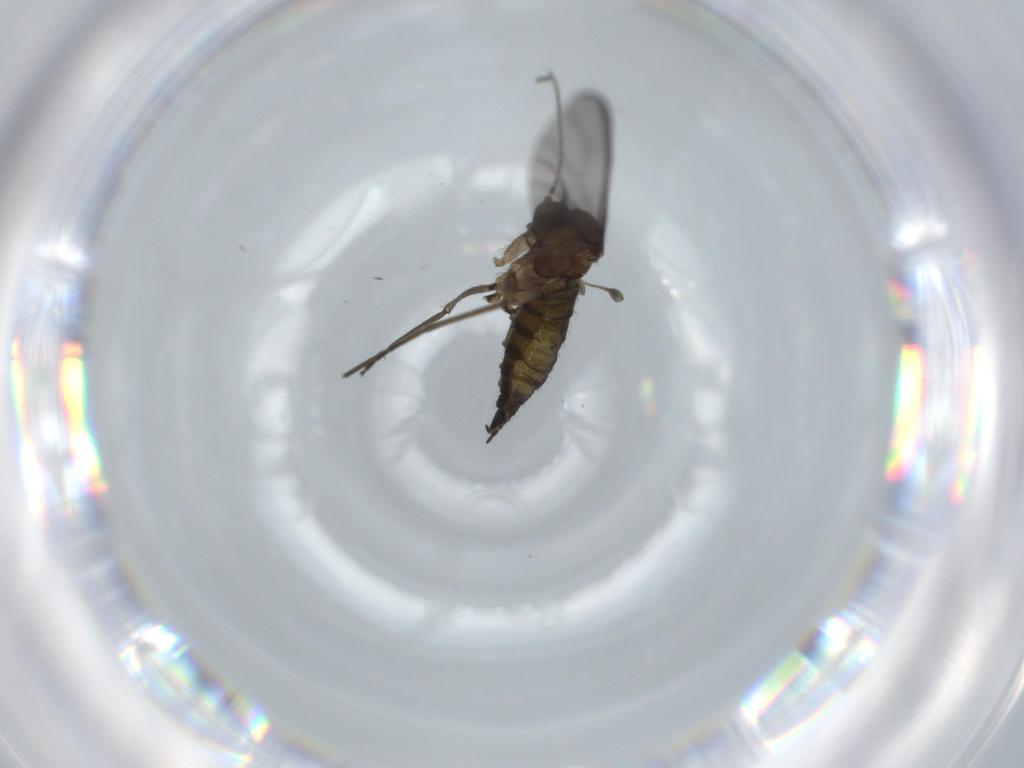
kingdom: Animalia
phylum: Arthropoda
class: Insecta
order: Diptera
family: Sciaridae
